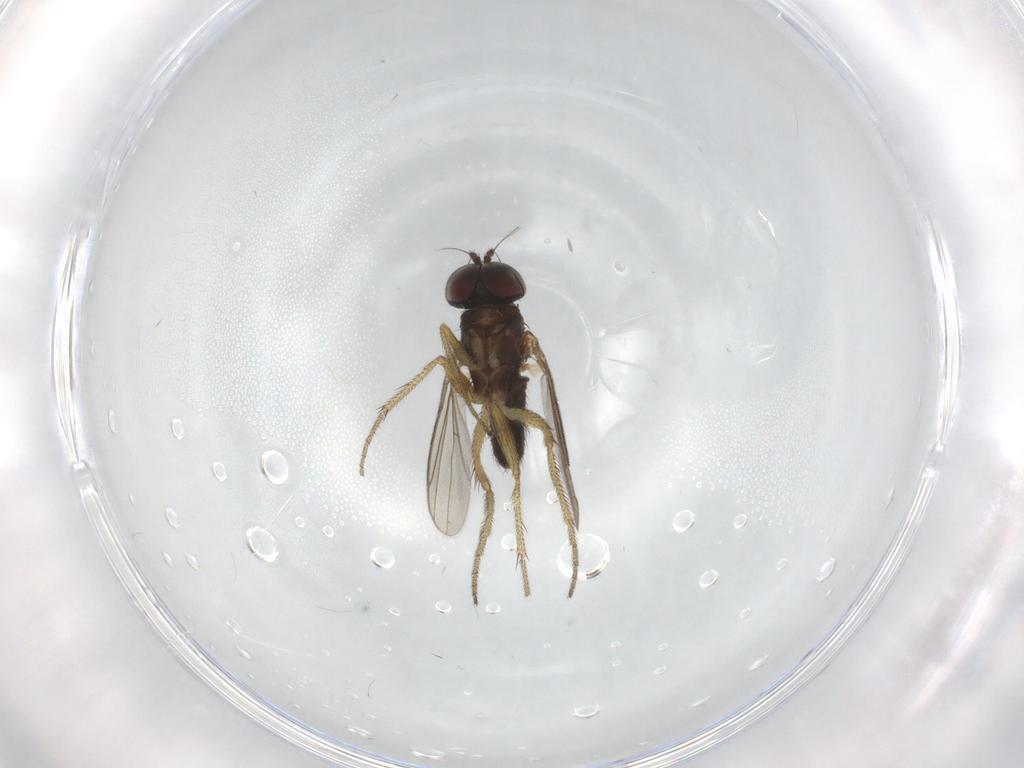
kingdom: Animalia
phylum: Arthropoda
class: Insecta
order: Diptera
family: Dolichopodidae
